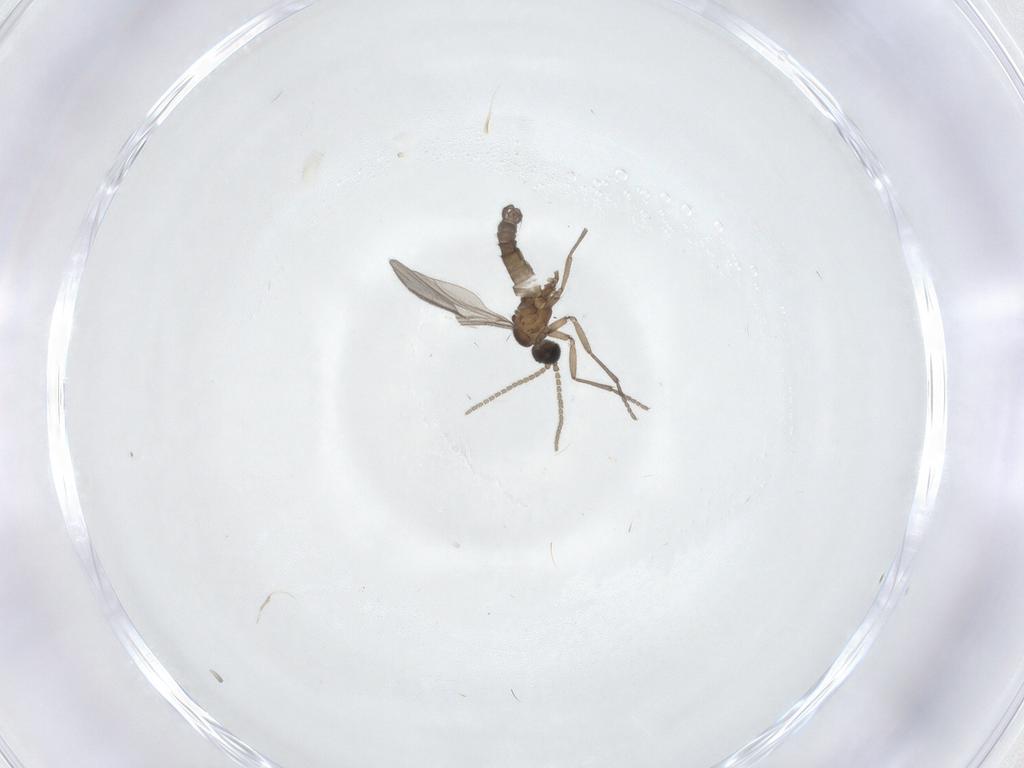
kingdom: Animalia
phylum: Arthropoda
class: Insecta
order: Diptera
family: Sciaridae
